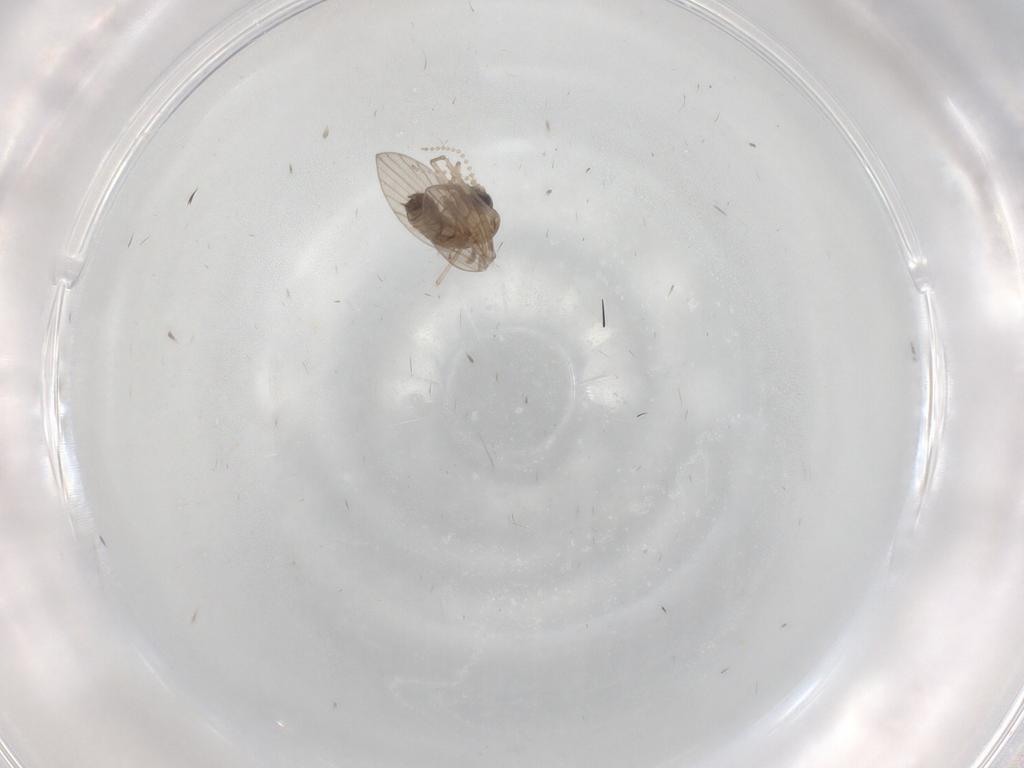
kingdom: Animalia
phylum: Arthropoda
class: Insecta
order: Diptera
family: Psychodidae
